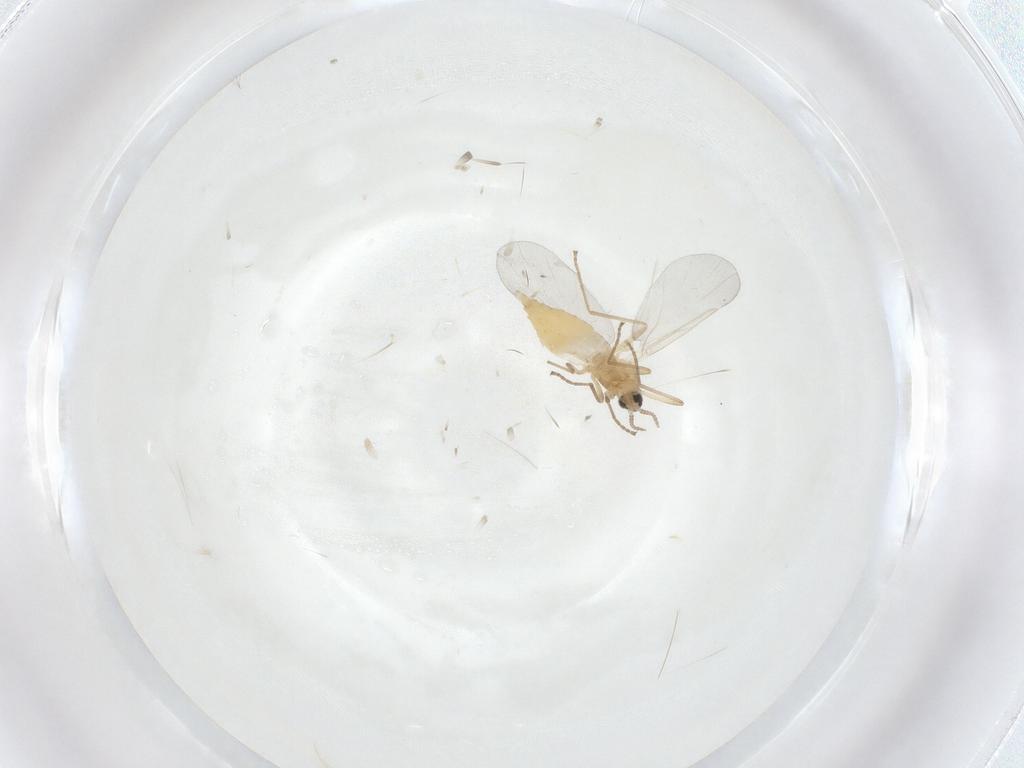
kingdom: Animalia
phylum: Arthropoda
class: Insecta
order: Diptera
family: Cecidomyiidae
